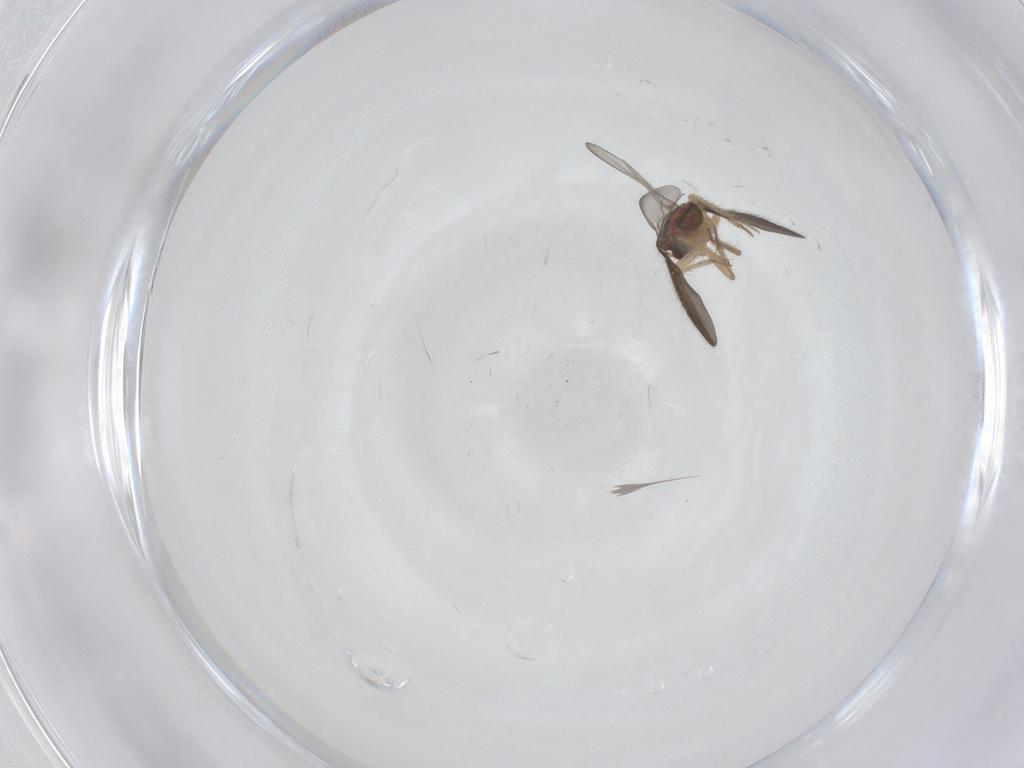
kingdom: Animalia
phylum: Arthropoda
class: Insecta
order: Hemiptera
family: Ceratocombidae
